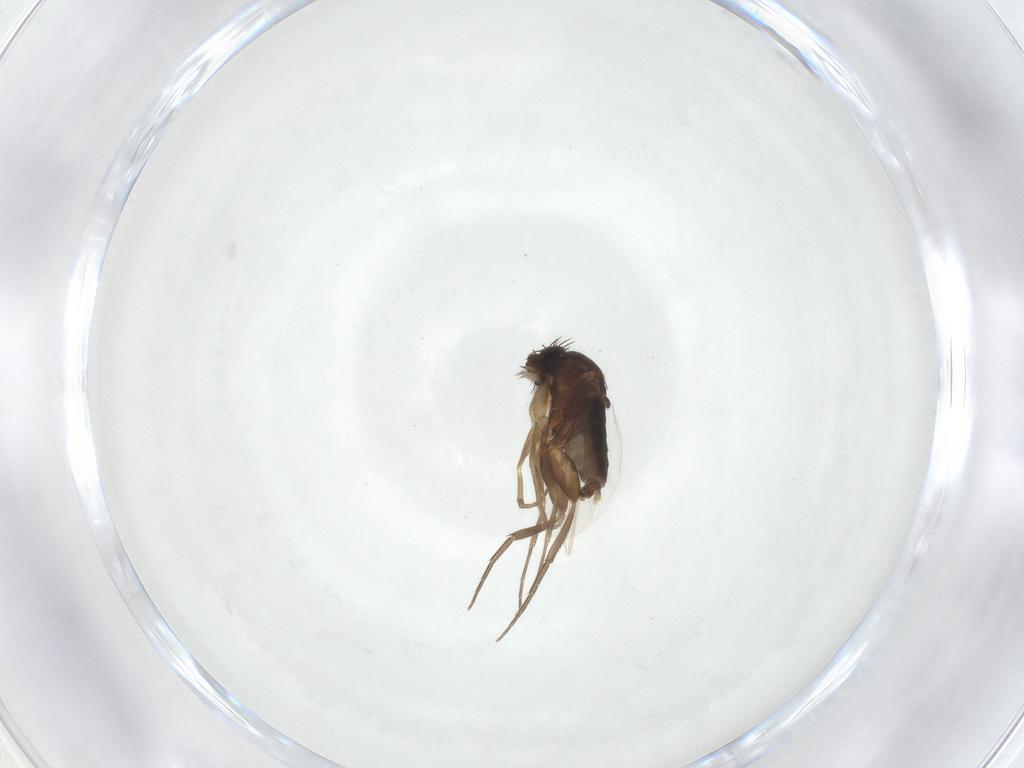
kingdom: Animalia
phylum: Arthropoda
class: Insecta
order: Diptera
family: Phoridae
